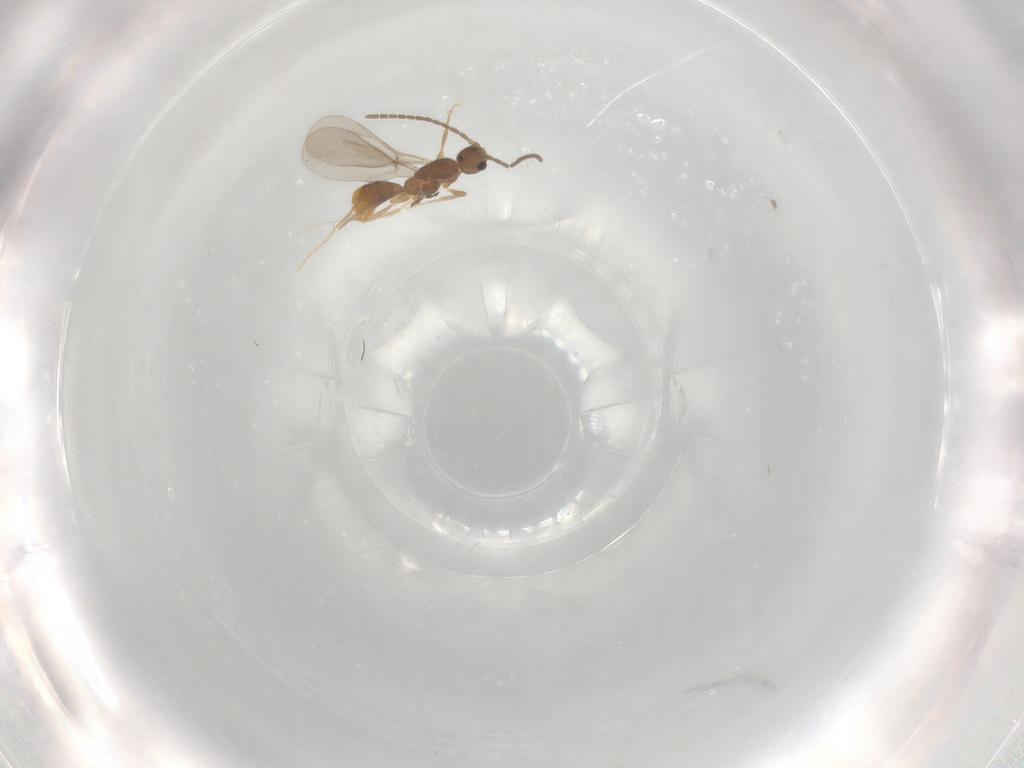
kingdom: Animalia
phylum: Arthropoda
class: Insecta
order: Hymenoptera
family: Formicidae
